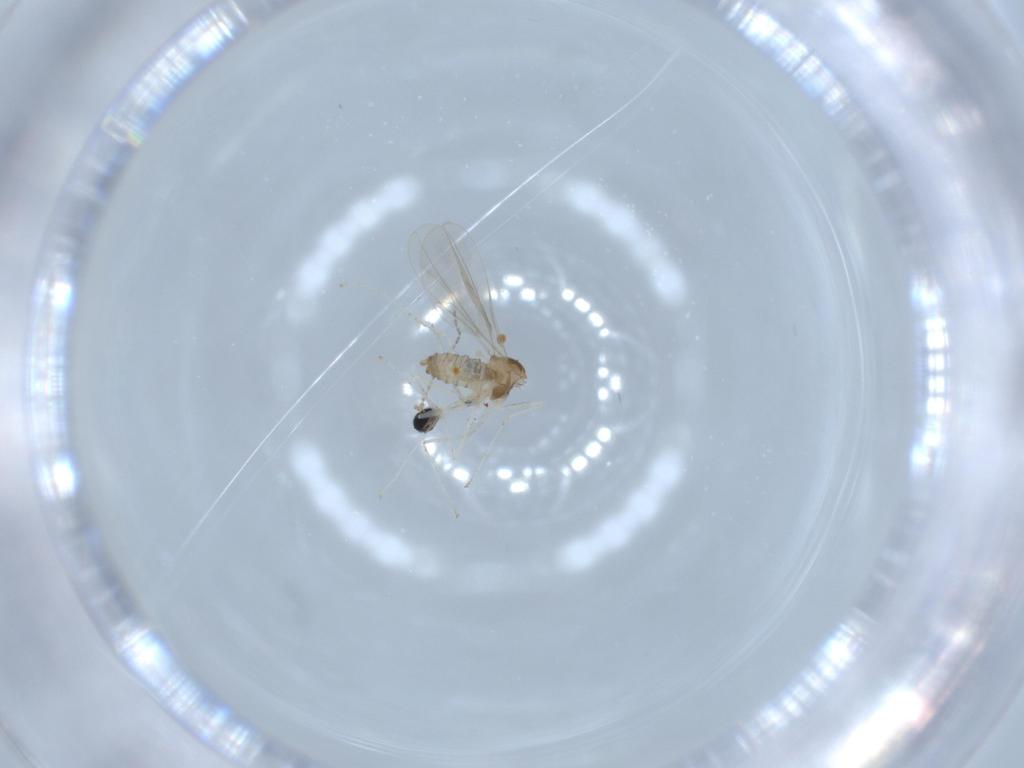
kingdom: Animalia
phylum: Arthropoda
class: Insecta
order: Diptera
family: Cecidomyiidae
